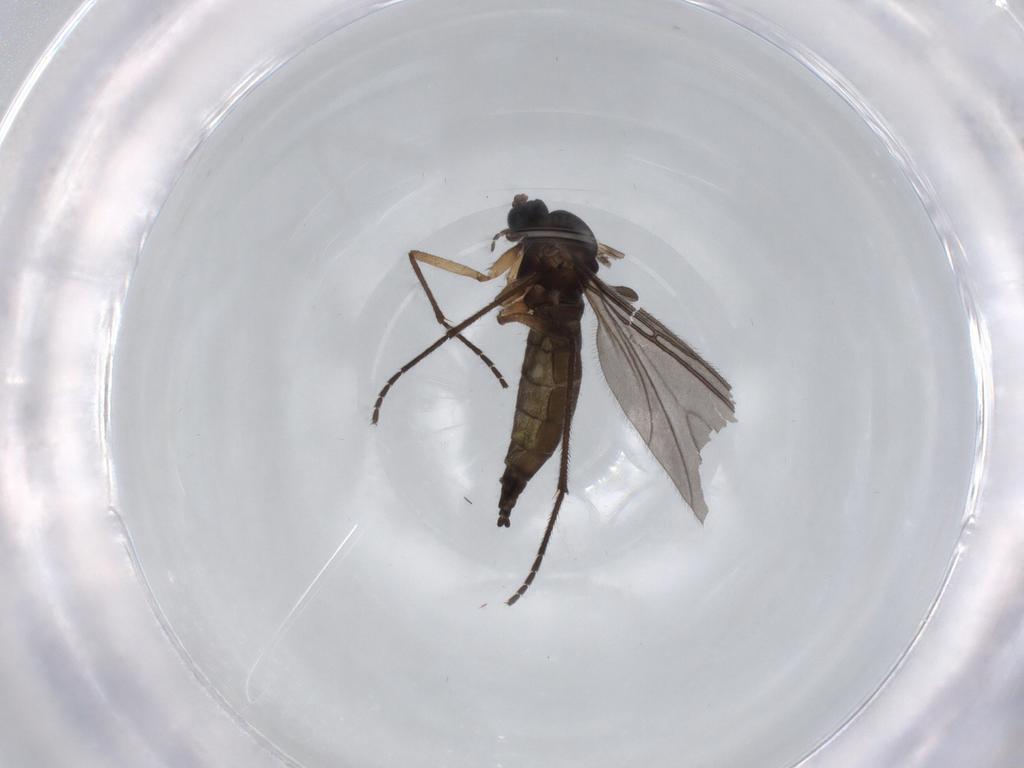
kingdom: Animalia
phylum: Arthropoda
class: Insecta
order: Diptera
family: Sciaridae
